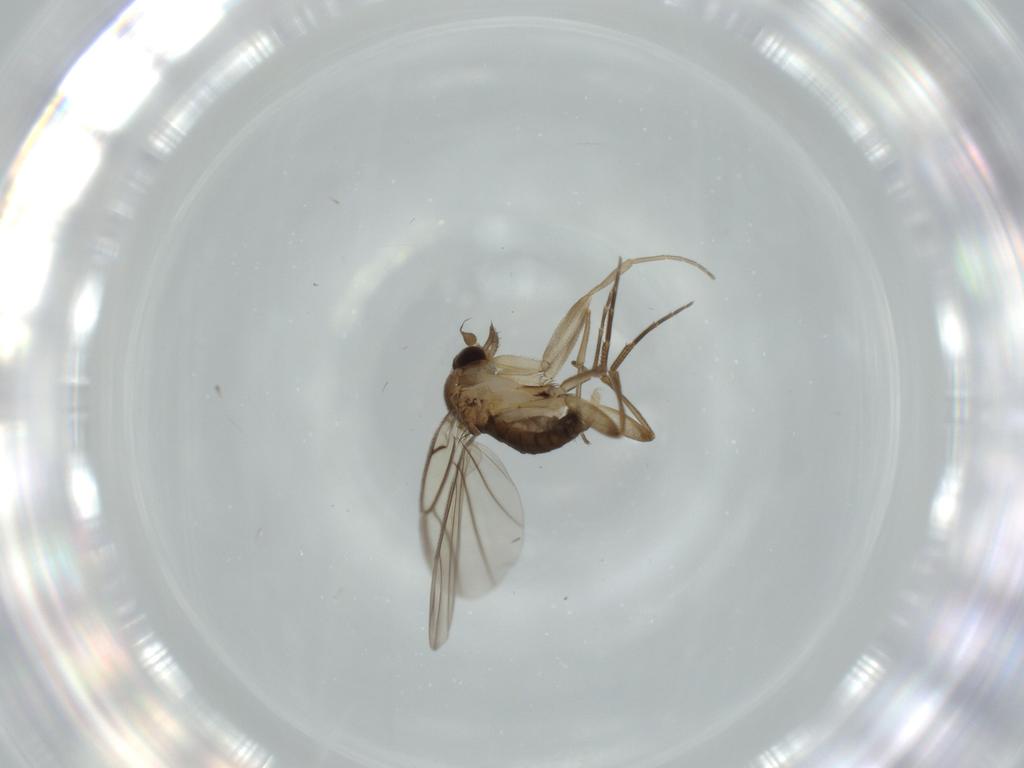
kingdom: Animalia
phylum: Arthropoda
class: Insecta
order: Diptera
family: Phoridae
